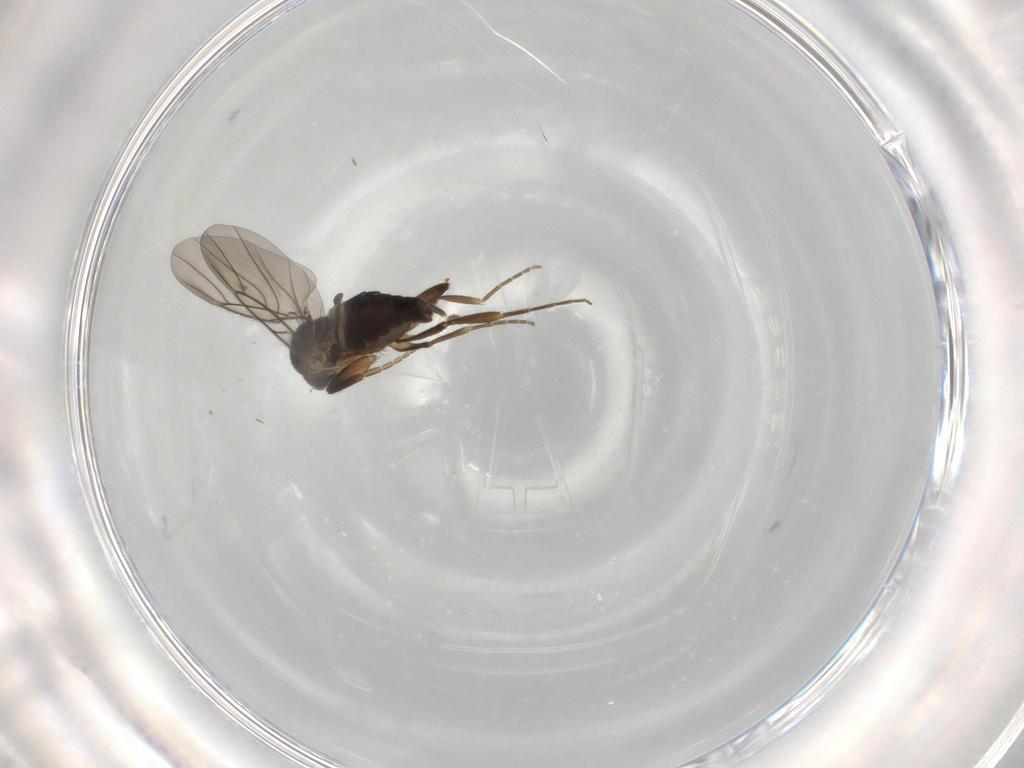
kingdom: Animalia
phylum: Arthropoda
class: Insecta
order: Diptera
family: Phoridae
